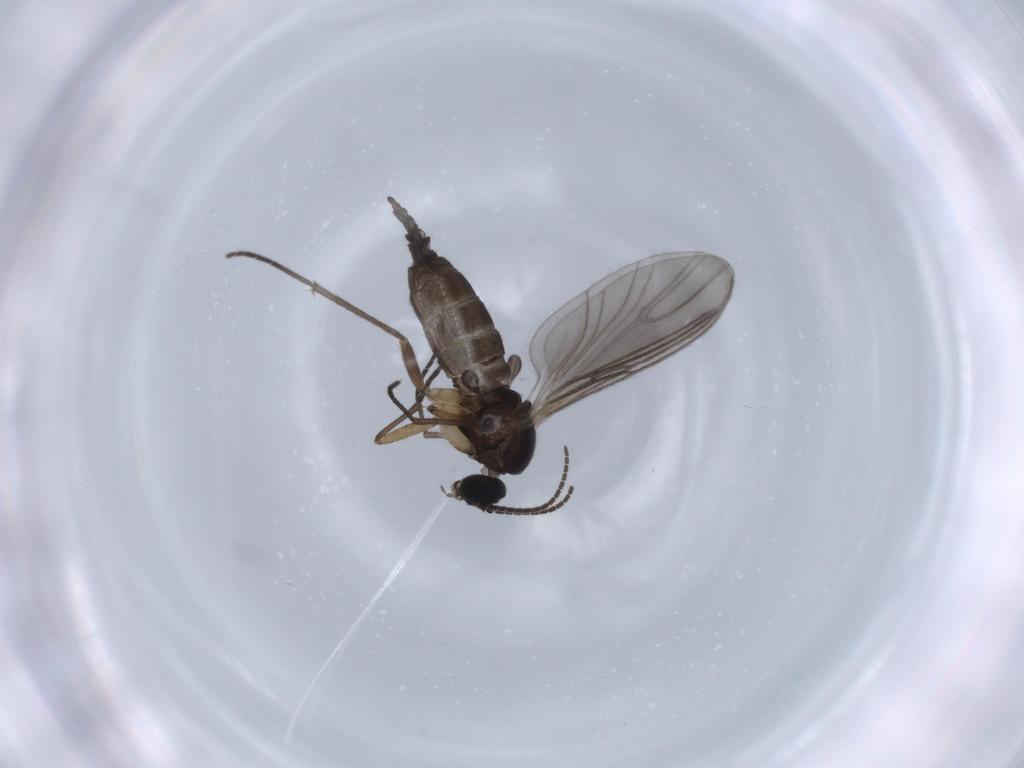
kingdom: Animalia
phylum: Arthropoda
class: Insecta
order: Diptera
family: Sciaridae
